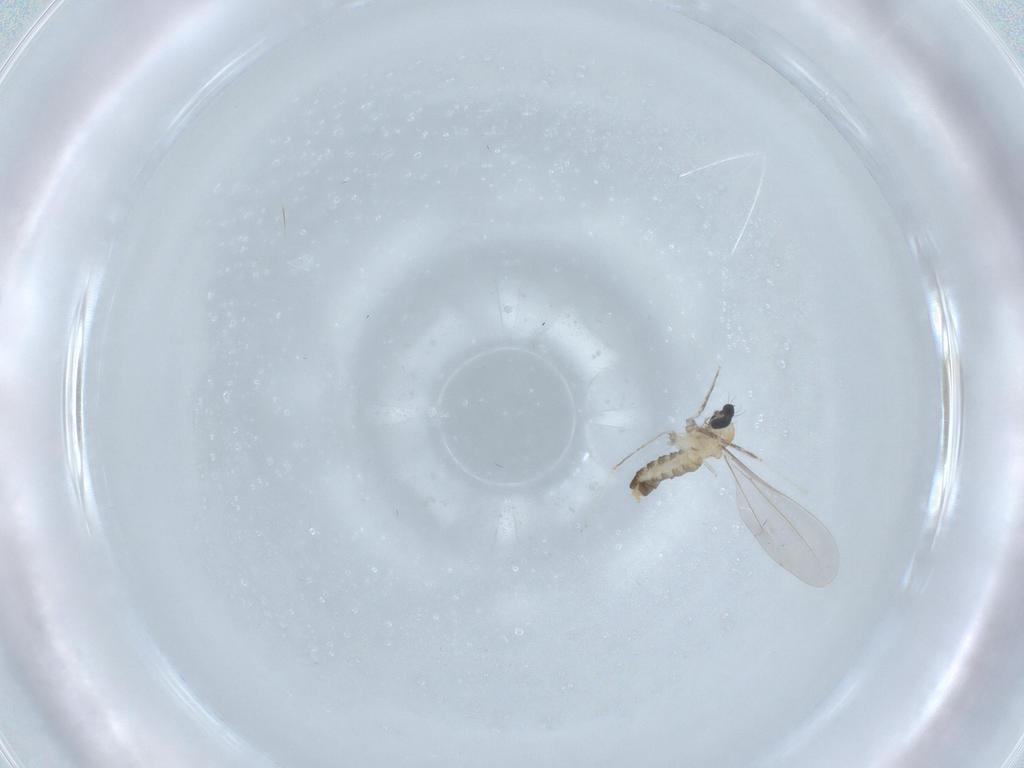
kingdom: Animalia
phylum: Arthropoda
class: Insecta
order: Diptera
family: Cecidomyiidae
